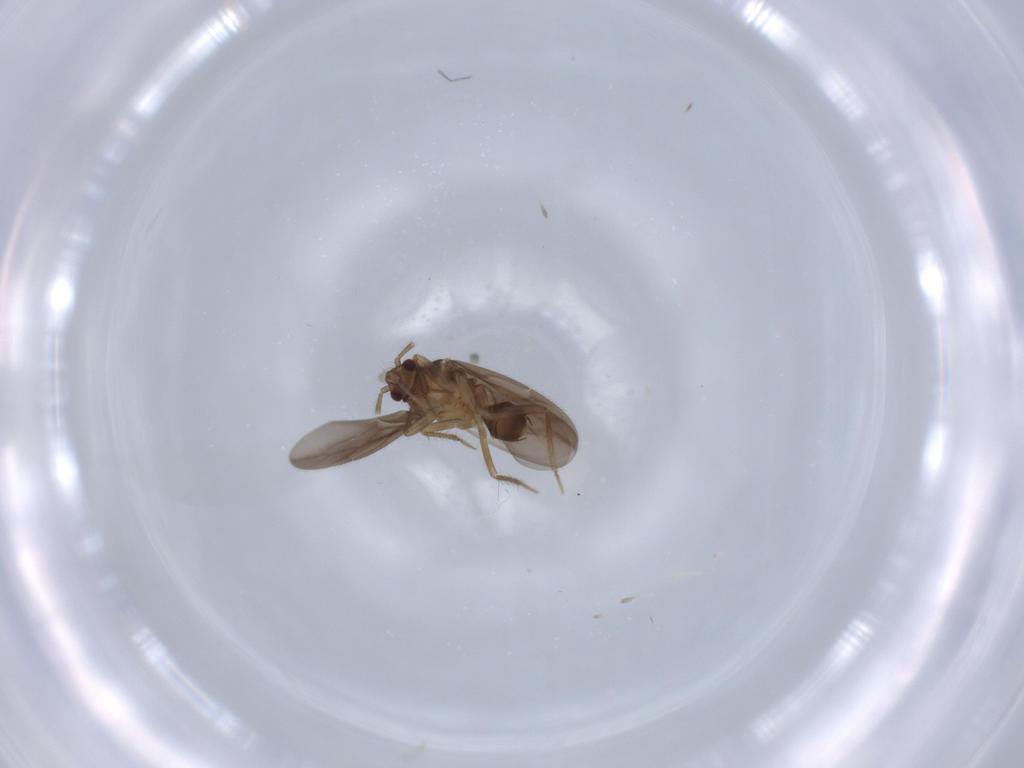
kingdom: Animalia
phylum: Arthropoda
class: Insecta
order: Hemiptera
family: Ceratocombidae
